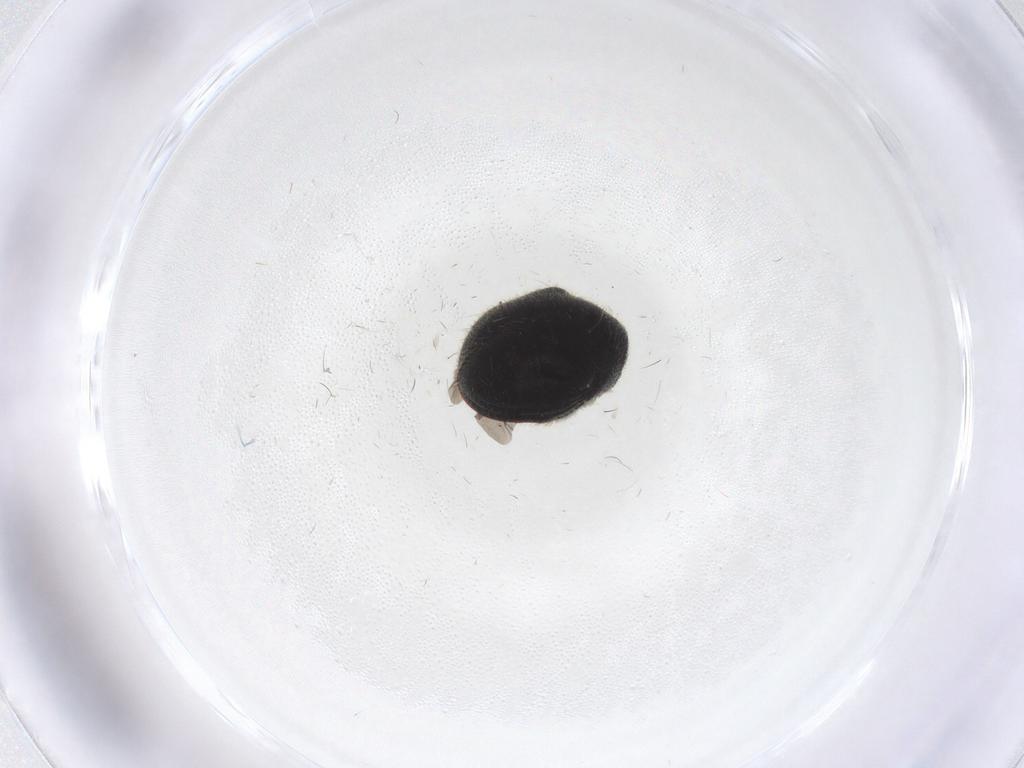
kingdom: Animalia
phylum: Arthropoda
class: Insecta
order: Coleoptera
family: Ptinidae
